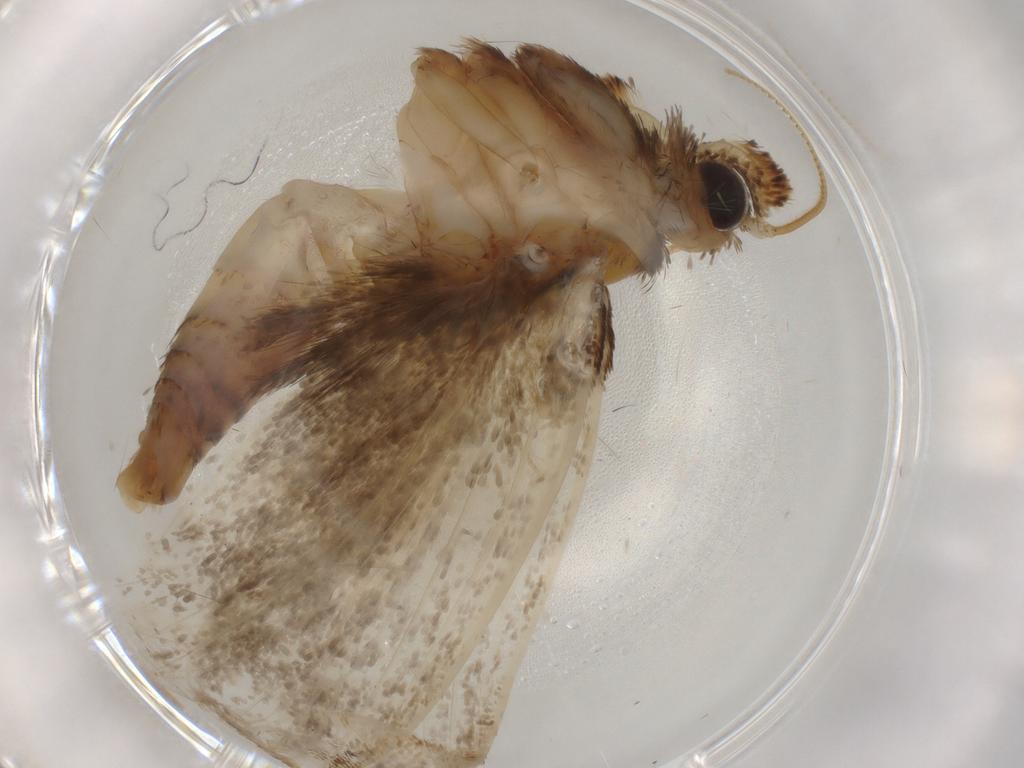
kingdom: Animalia
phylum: Arthropoda
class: Insecta
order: Lepidoptera
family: Tineidae
